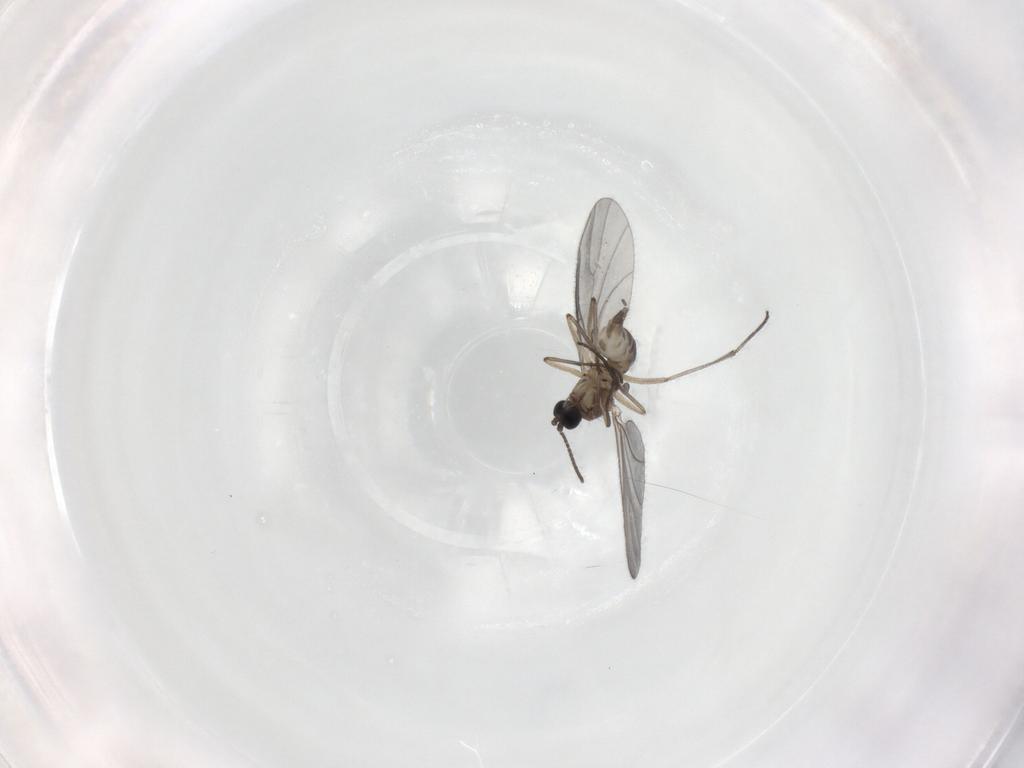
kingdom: Animalia
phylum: Arthropoda
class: Insecta
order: Diptera
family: Sciaridae
